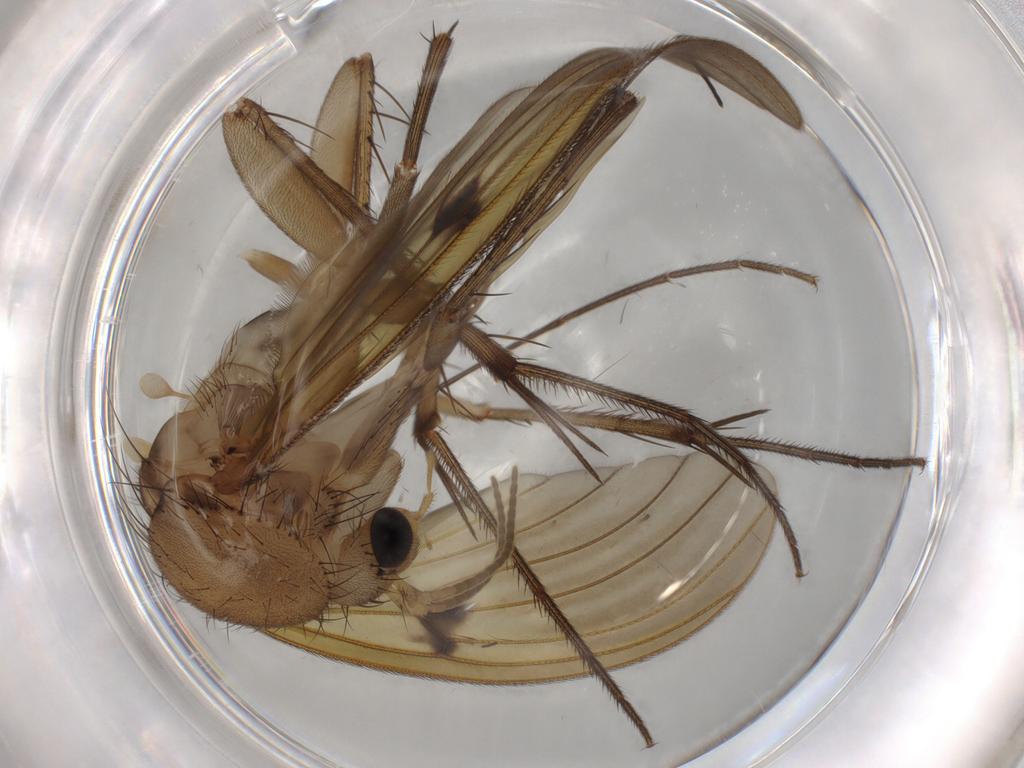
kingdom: Animalia
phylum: Arthropoda
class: Insecta
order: Diptera
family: Sciaridae
